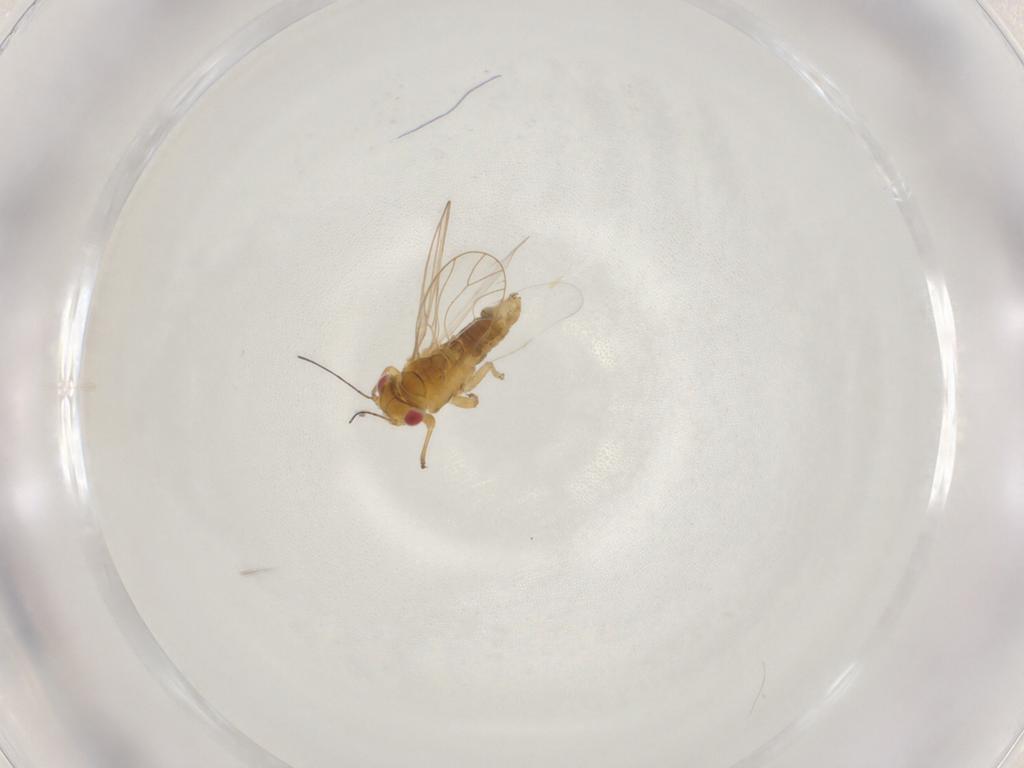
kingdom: Animalia
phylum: Arthropoda
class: Insecta
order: Hemiptera
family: Psyllidae
